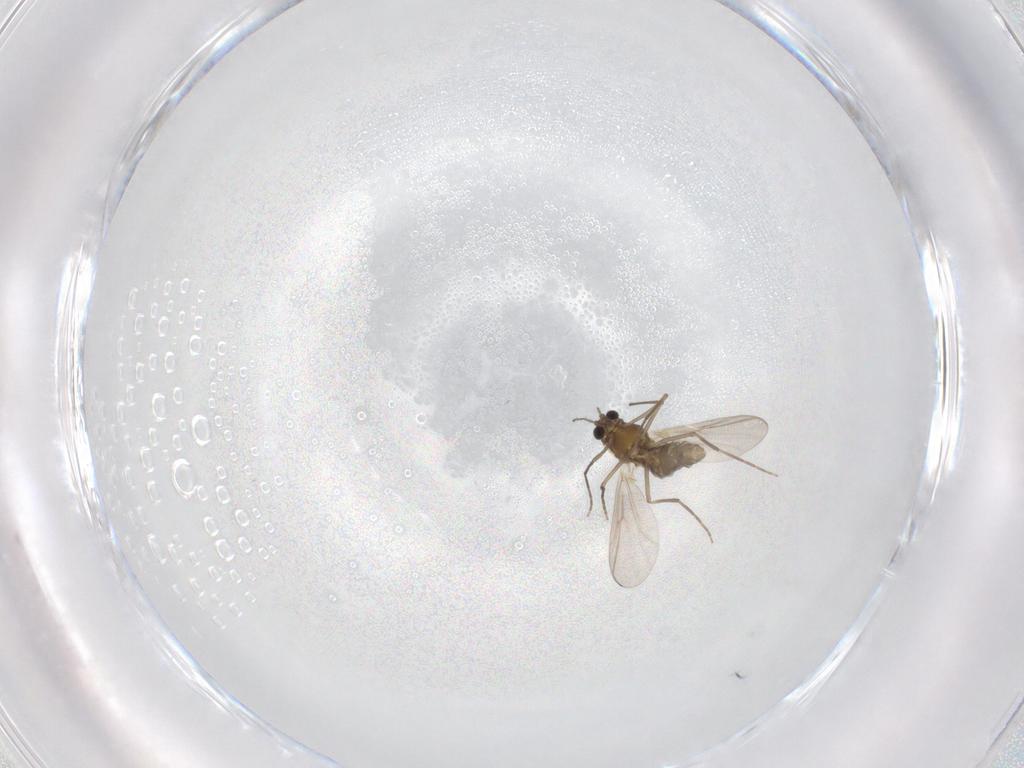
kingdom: Animalia
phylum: Arthropoda
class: Insecta
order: Diptera
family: Chironomidae
